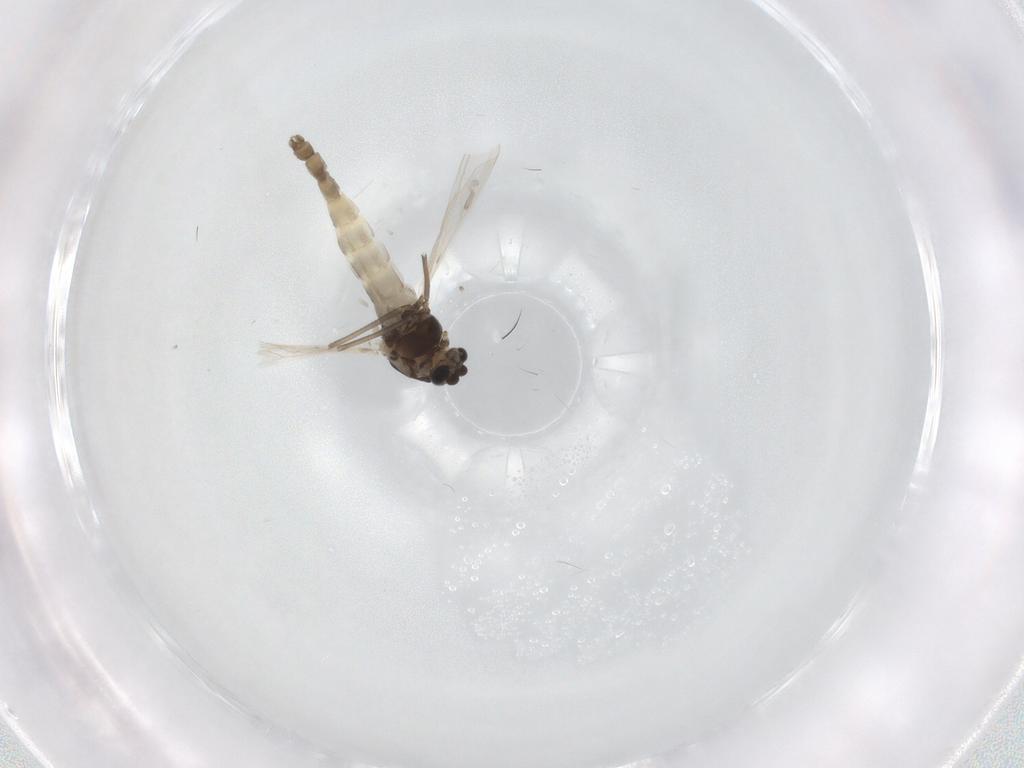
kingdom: Animalia
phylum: Arthropoda
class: Insecta
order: Diptera
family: Chironomidae
